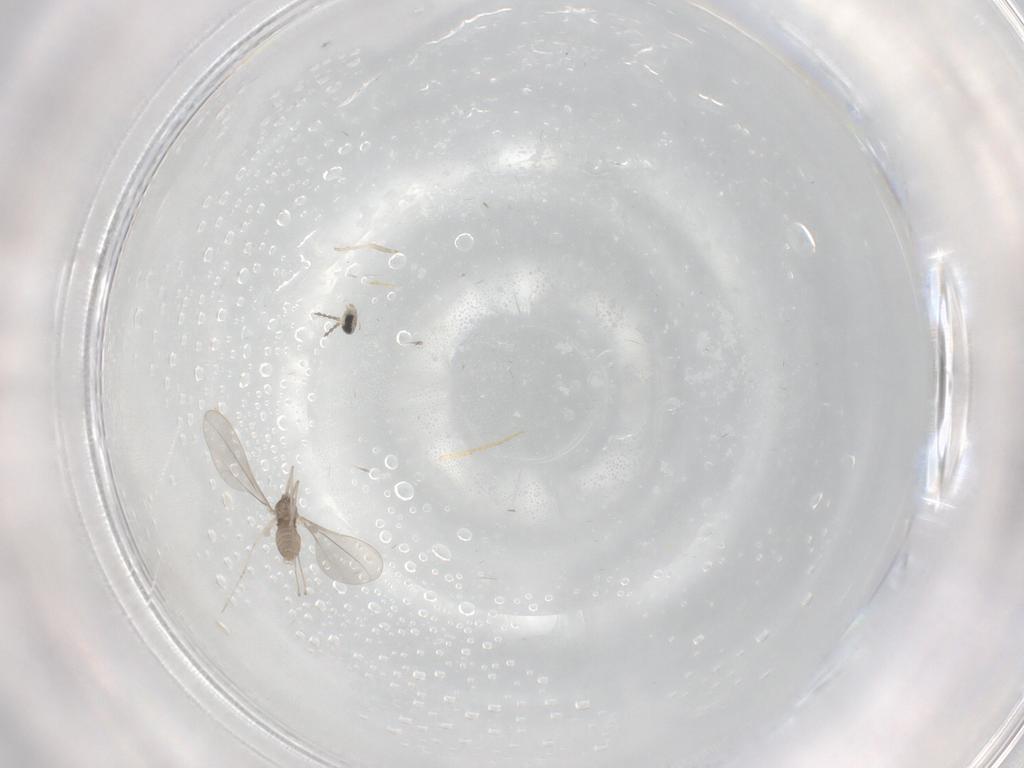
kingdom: Animalia
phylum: Arthropoda
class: Insecta
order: Diptera
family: Cecidomyiidae
